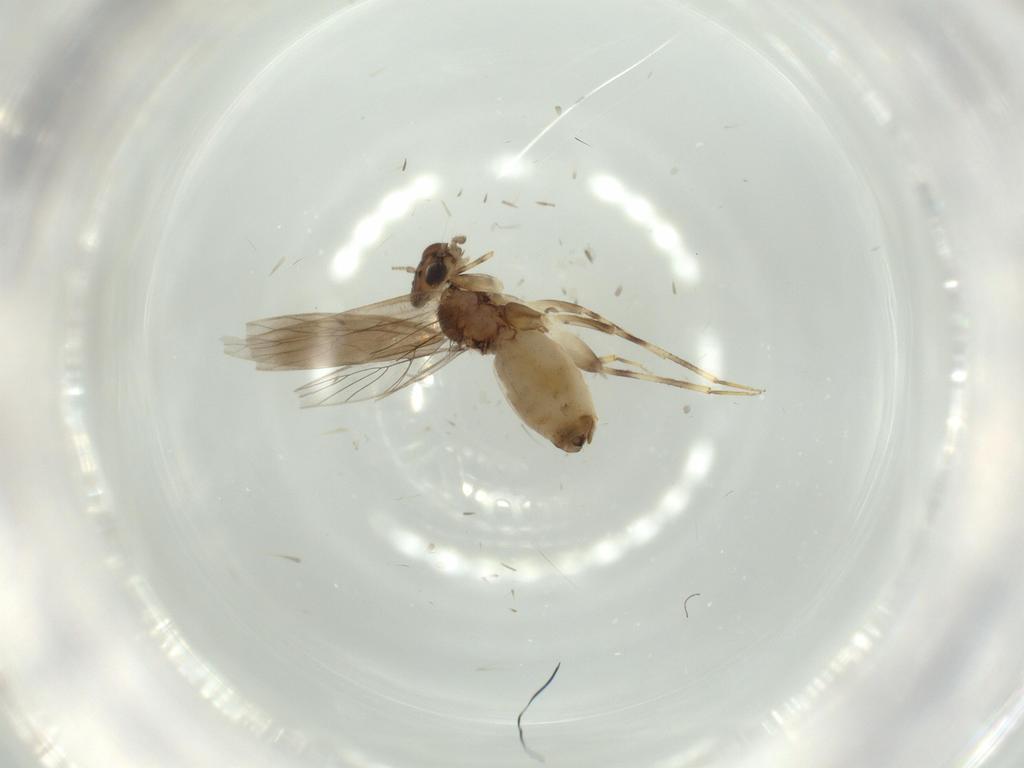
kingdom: Animalia
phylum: Arthropoda
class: Insecta
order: Psocodea
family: Lepidopsocidae
